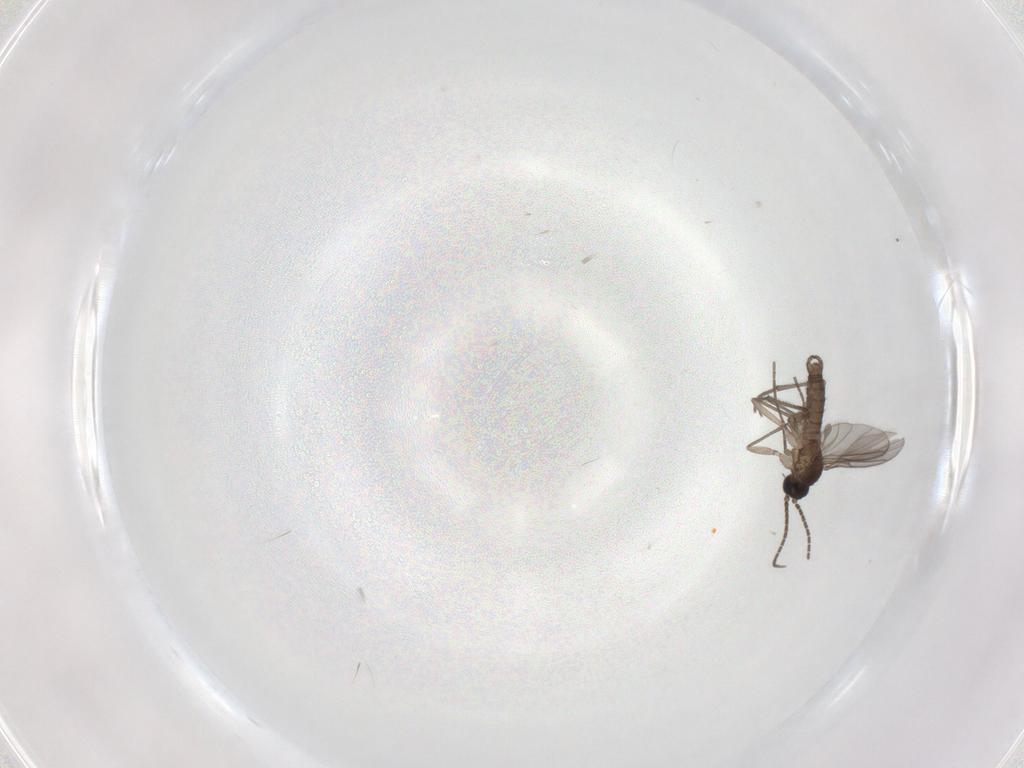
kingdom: Animalia
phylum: Arthropoda
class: Insecta
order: Diptera
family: Sciaridae
